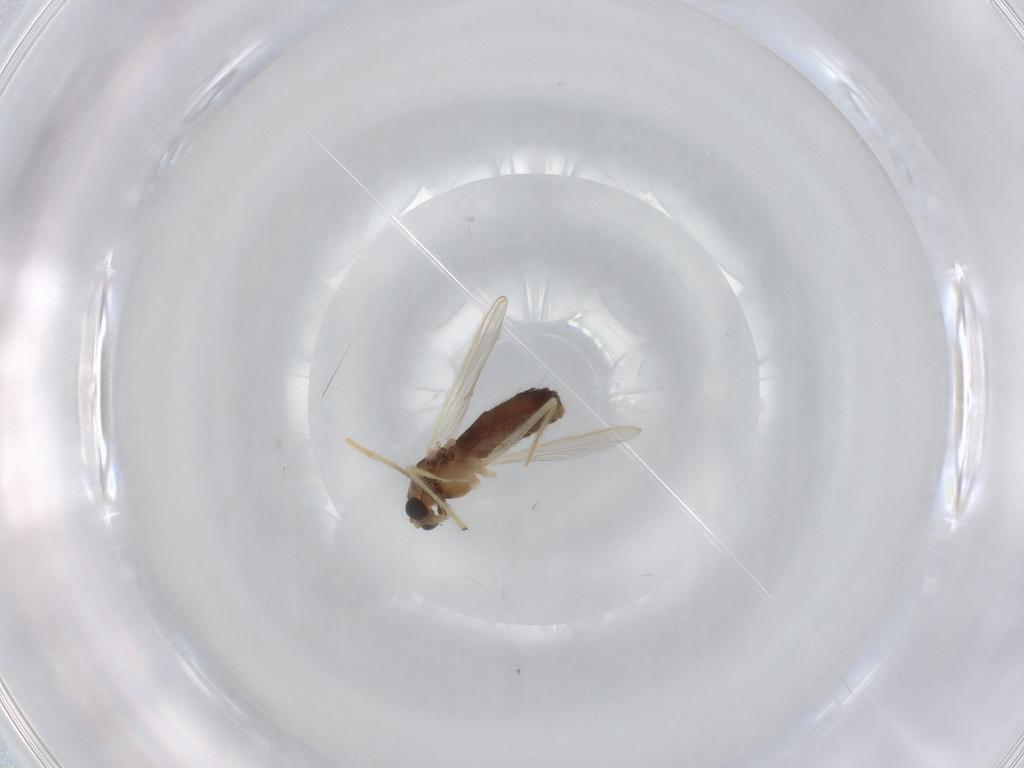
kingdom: Animalia
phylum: Arthropoda
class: Insecta
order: Diptera
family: Chironomidae
